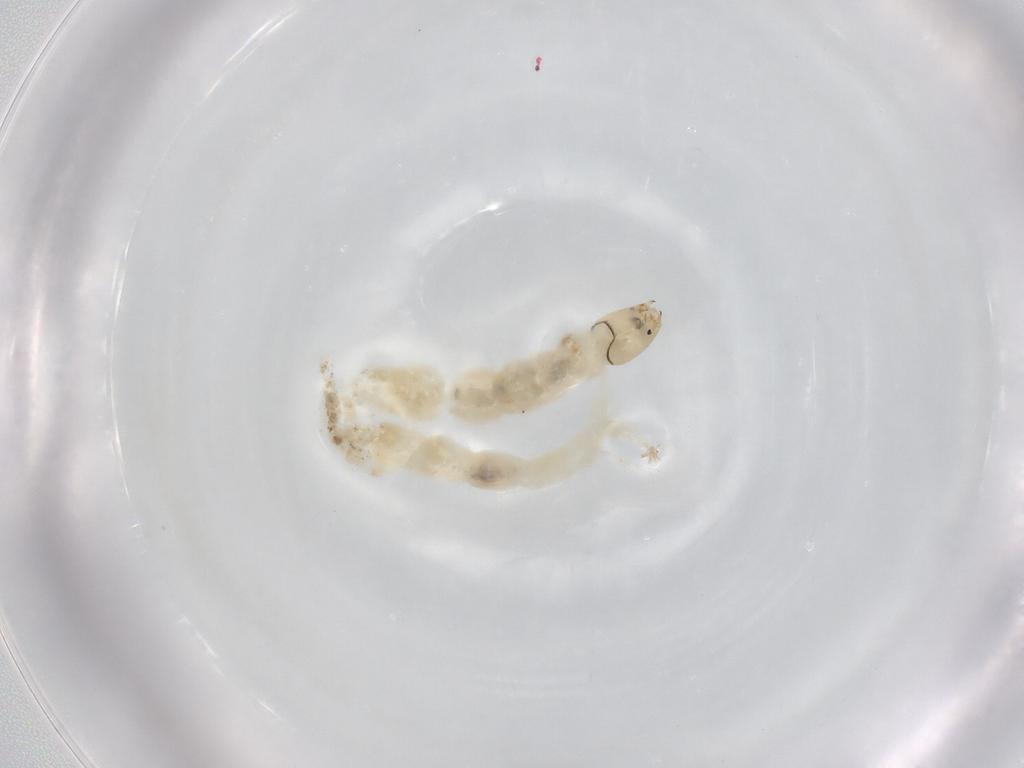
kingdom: Animalia
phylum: Arthropoda
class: Insecta
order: Diptera
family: Chironomidae
